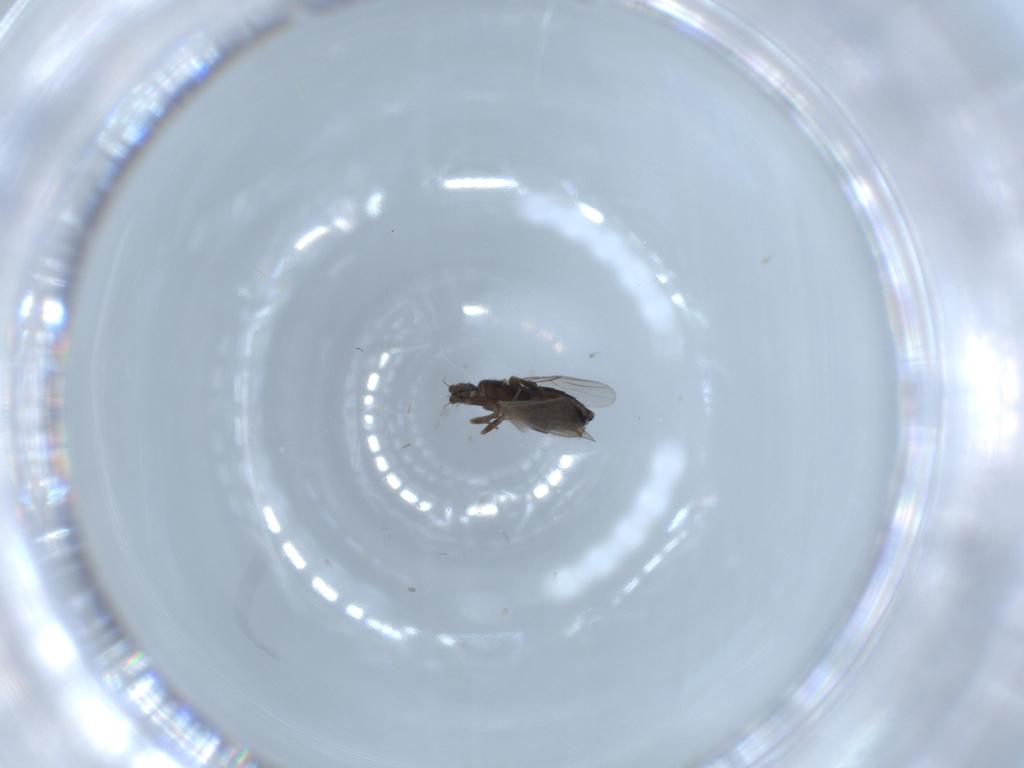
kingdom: Animalia
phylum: Arthropoda
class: Insecta
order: Diptera
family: Phoridae
